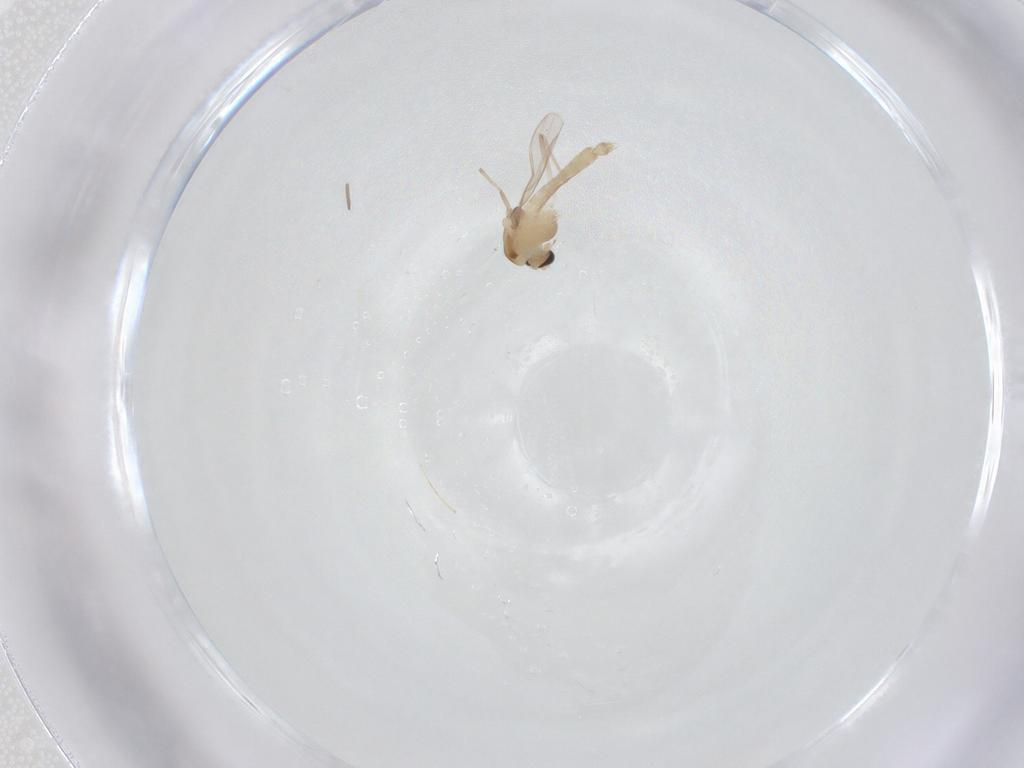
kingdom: Animalia
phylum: Arthropoda
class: Insecta
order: Diptera
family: Chironomidae
